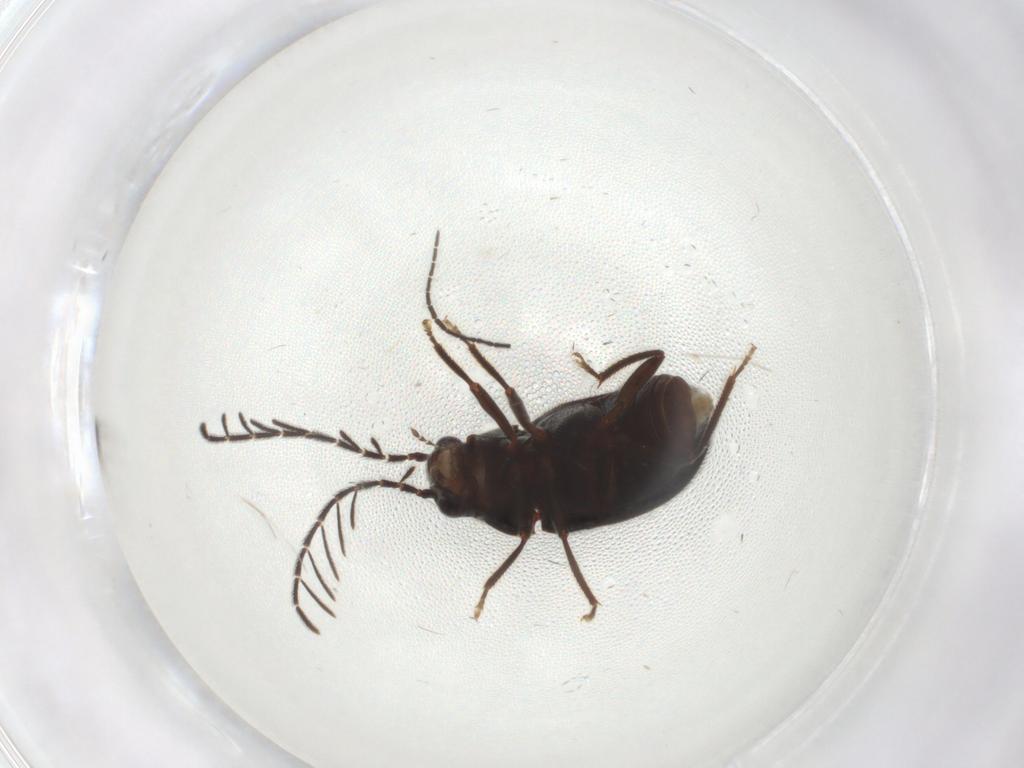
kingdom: Animalia
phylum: Arthropoda
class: Insecta
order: Coleoptera
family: Ptilodactylidae
